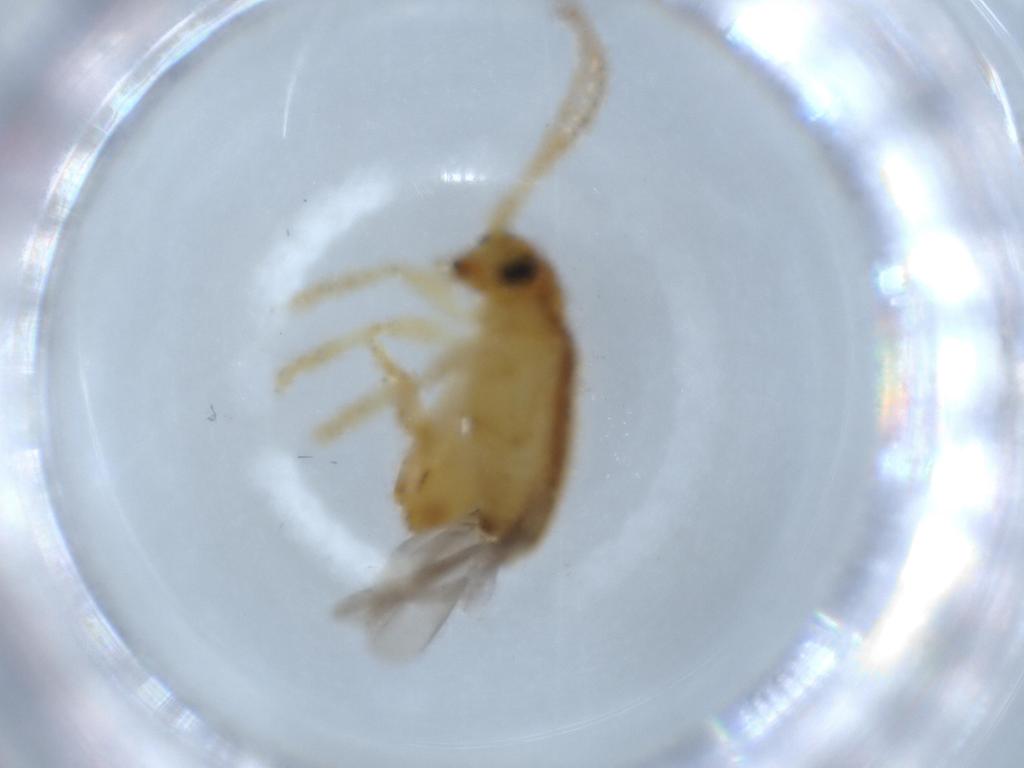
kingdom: Animalia
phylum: Arthropoda
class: Insecta
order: Coleoptera
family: Chrysomelidae
